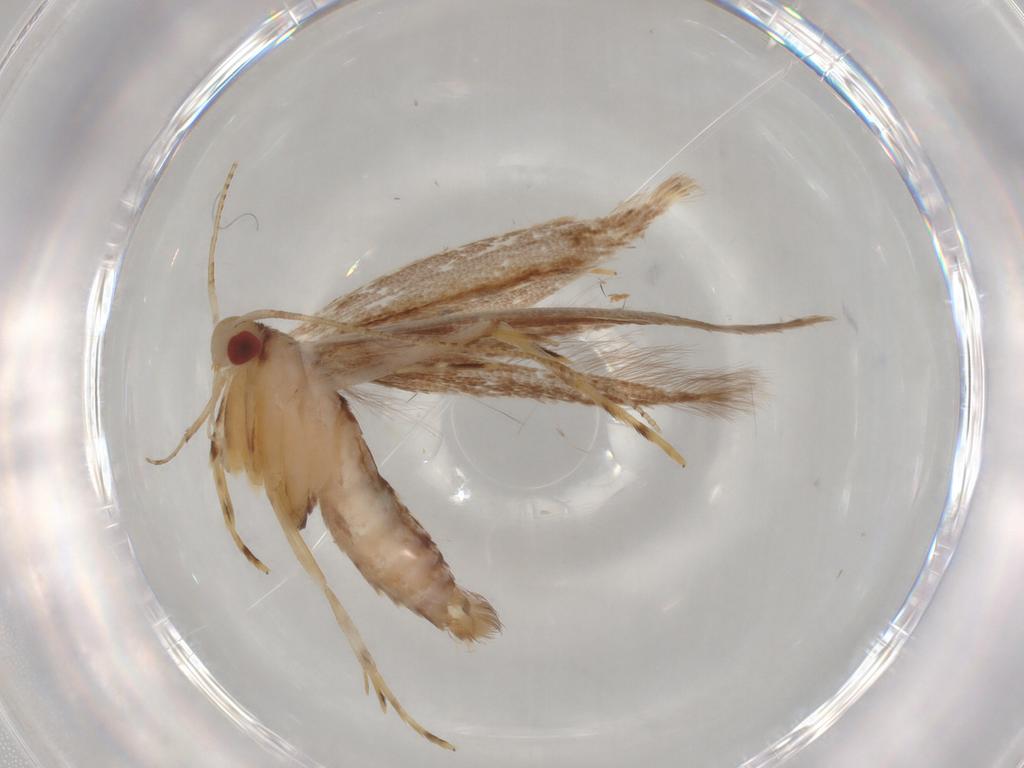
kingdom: Animalia
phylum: Arthropoda
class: Insecta
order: Lepidoptera
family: Cosmopterigidae
